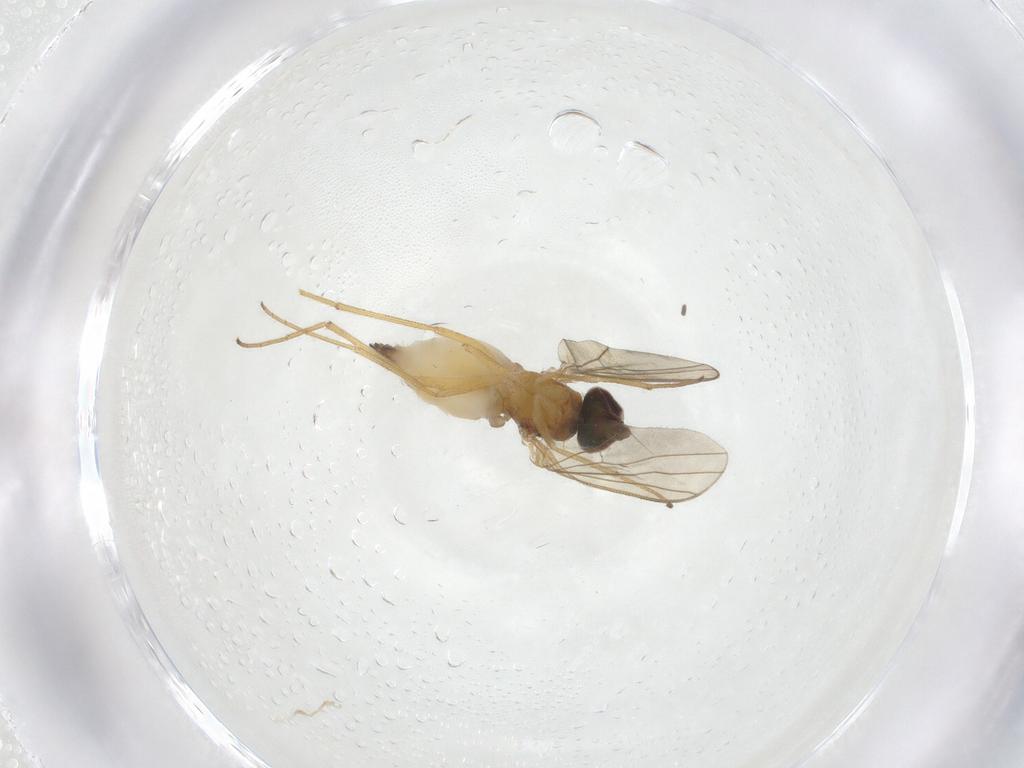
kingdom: Animalia
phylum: Arthropoda
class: Insecta
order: Diptera
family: Dolichopodidae
